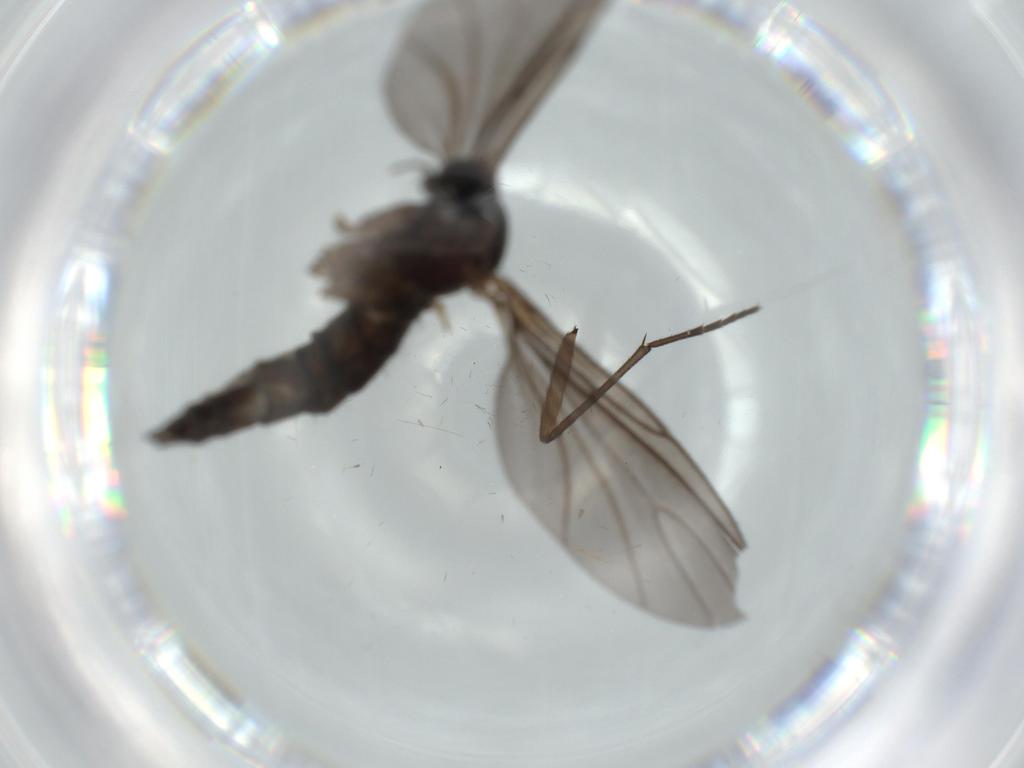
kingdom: Animalia
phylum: Arthropoda
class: Insecta
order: Diptera
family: Sciaridae
